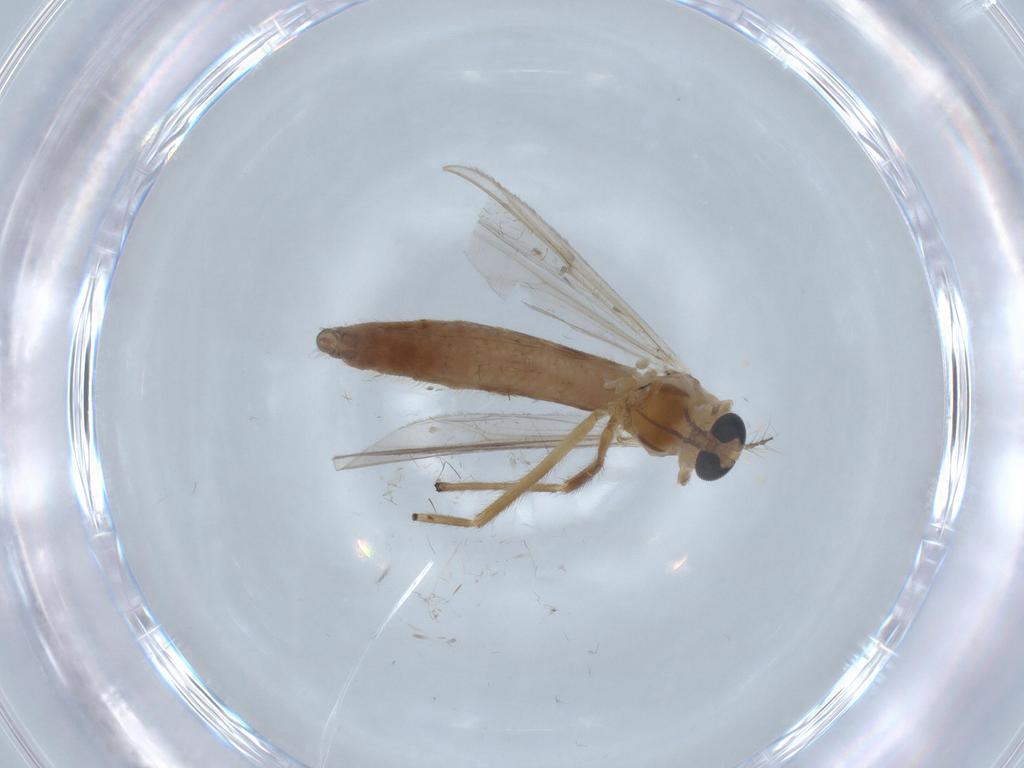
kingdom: Animalia
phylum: Arthropoda
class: Insecta
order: Diptera
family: Chironomidae
